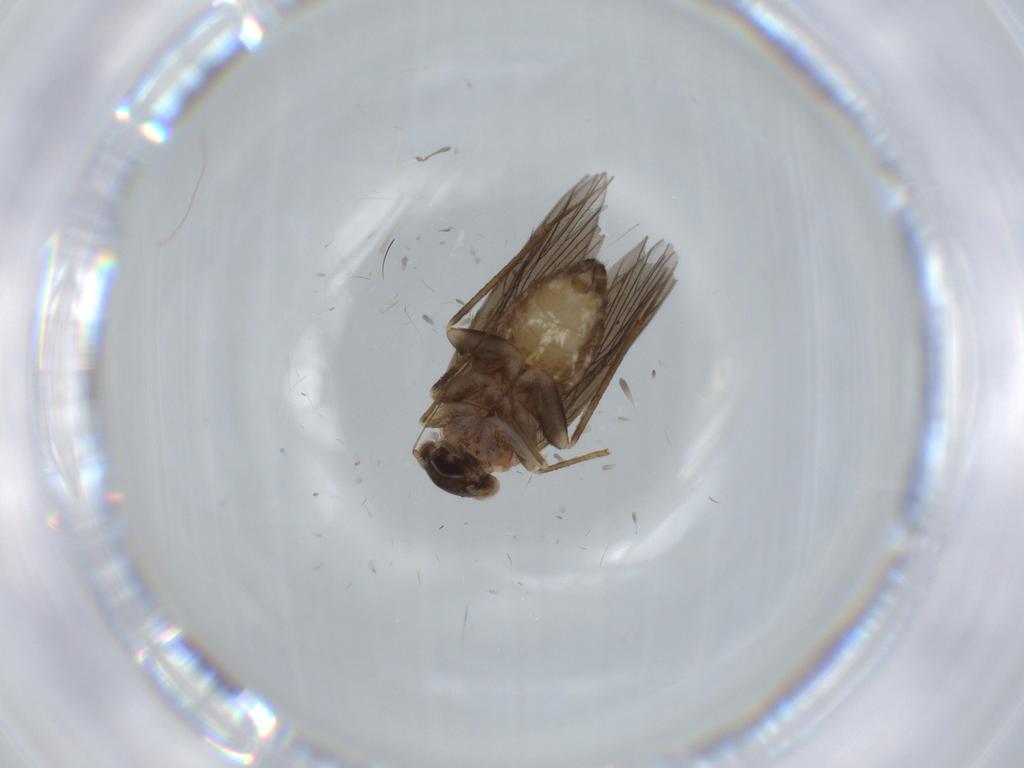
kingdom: Animalia
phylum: Arthropoda
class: Insecta
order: Psocodea
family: Lepidopsocidae
